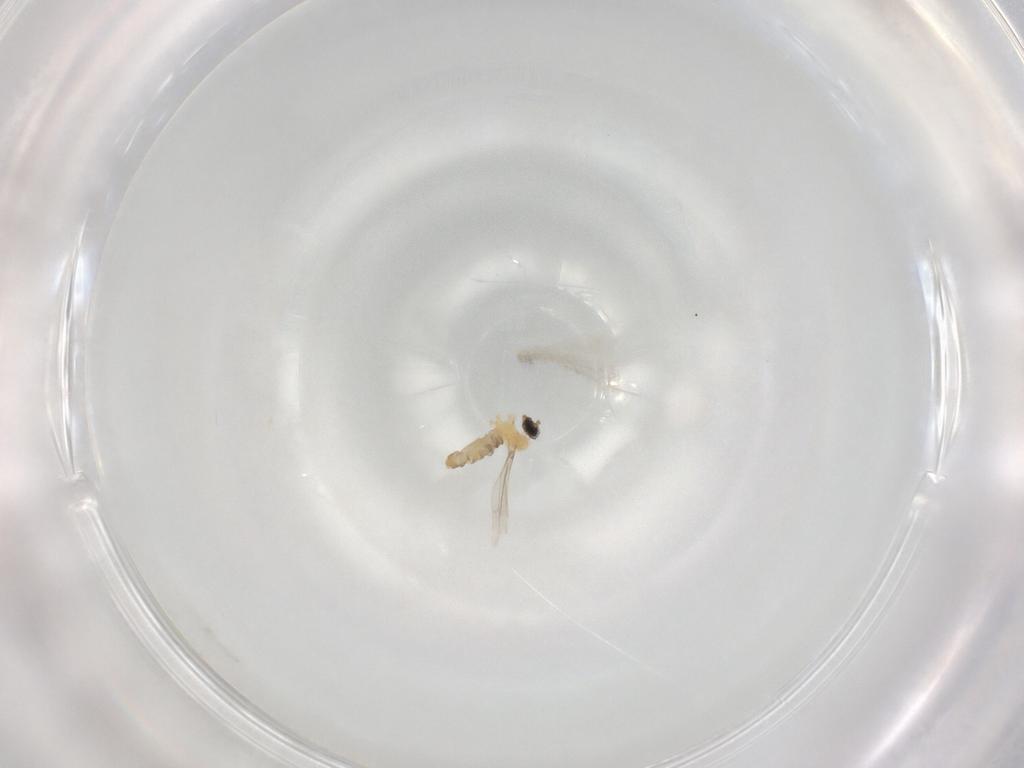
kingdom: Animalia
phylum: Arthropoda
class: Insecta
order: Diptera
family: Cecidomyiidae
